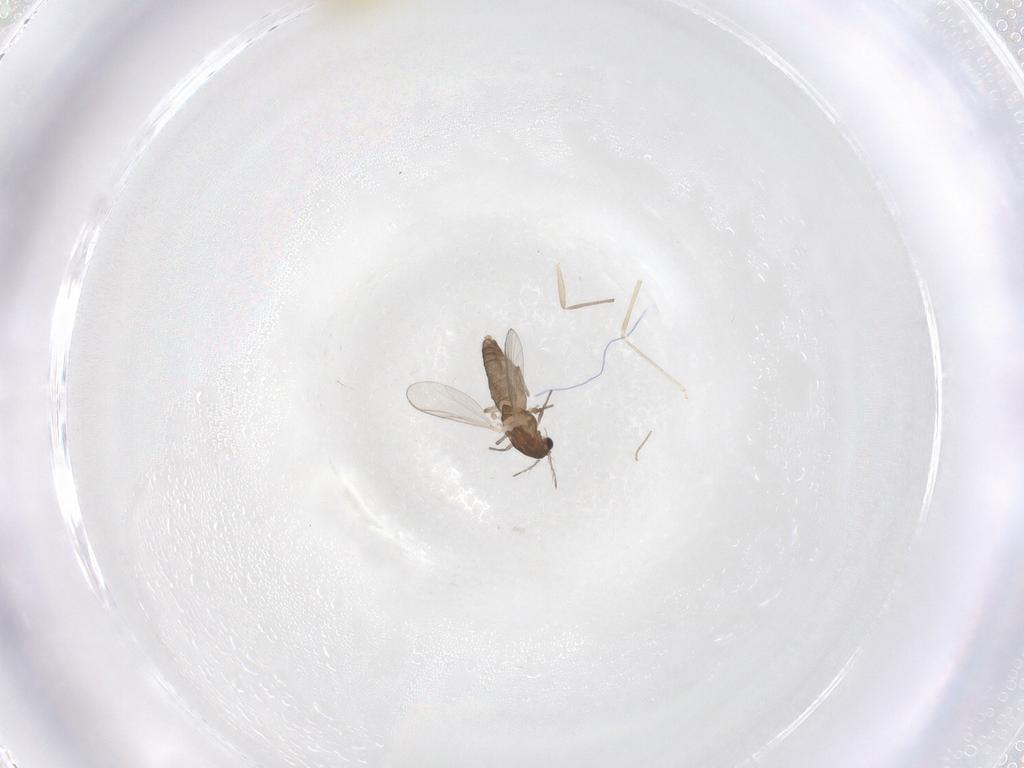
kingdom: Animalia
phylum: Arthropoda
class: Insecta
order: Diptera
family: Chironomidae
